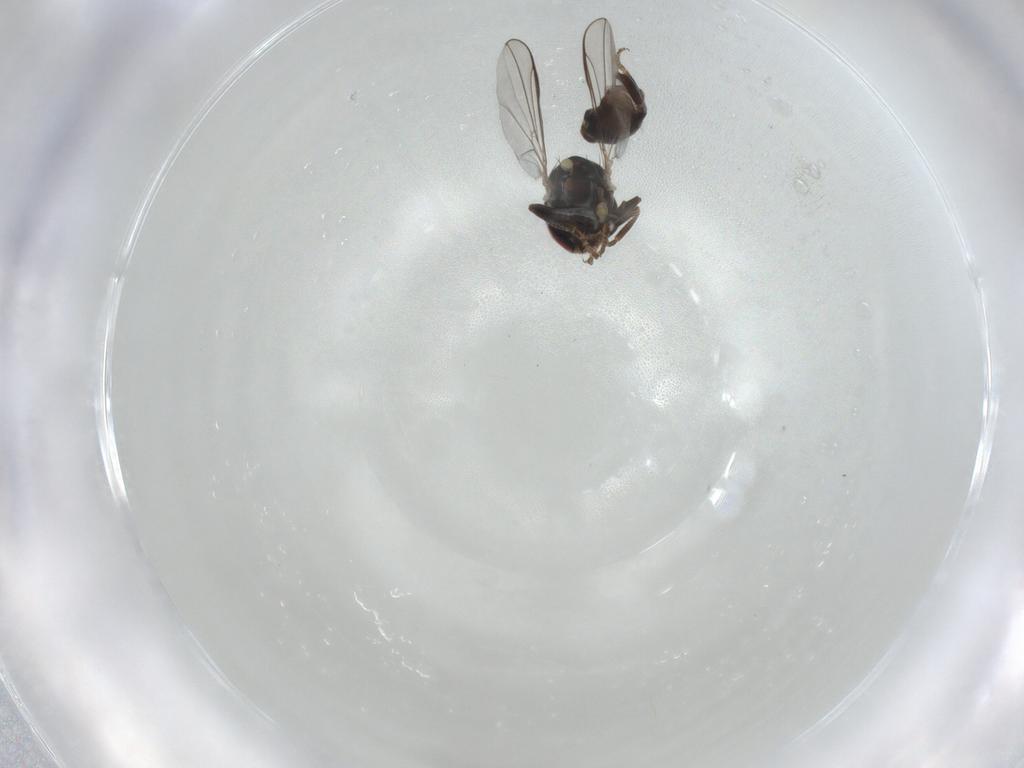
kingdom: Animalia
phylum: Arthropoda
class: Insecta
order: Diptera
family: Pipunculidae
